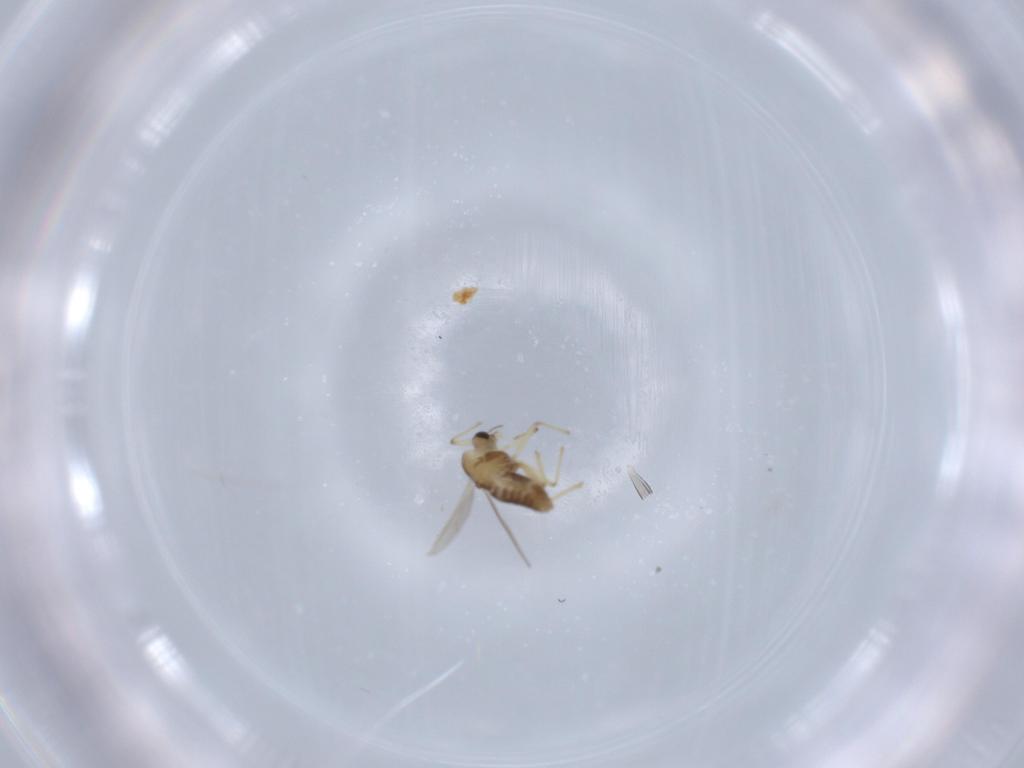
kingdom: Animalia
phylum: Arthropoda
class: Insecta
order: Diptera
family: Chironomidae
